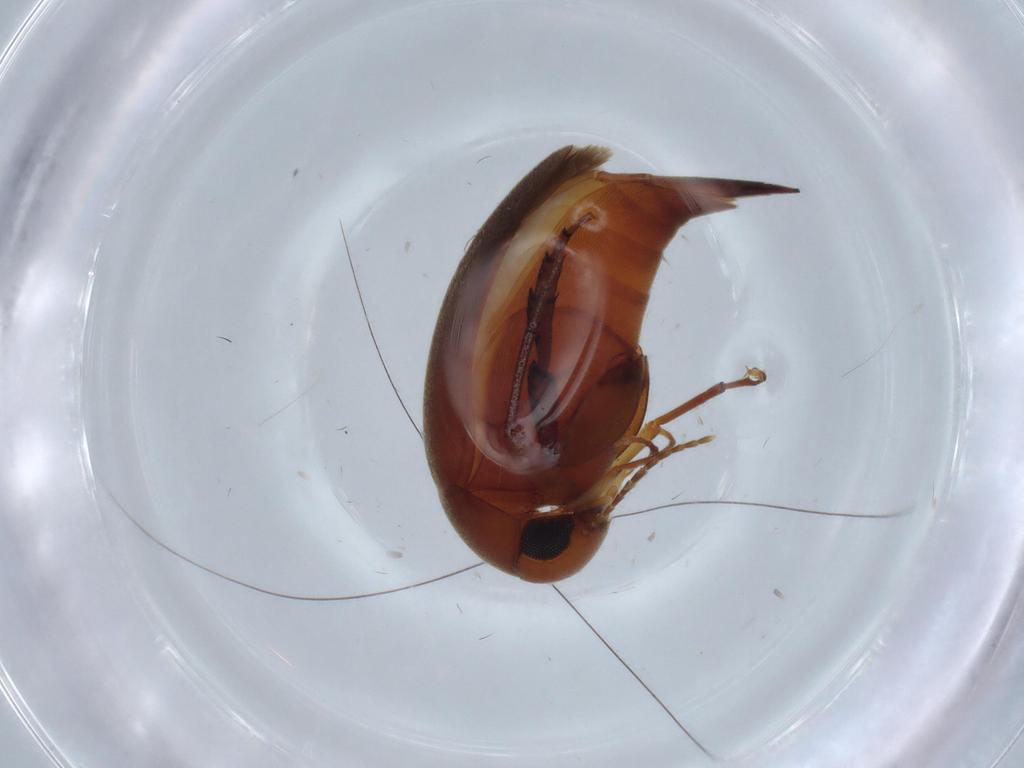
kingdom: Animalia
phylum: Arthropoda
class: Insecta
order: Coleoptera
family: Mordellidae
